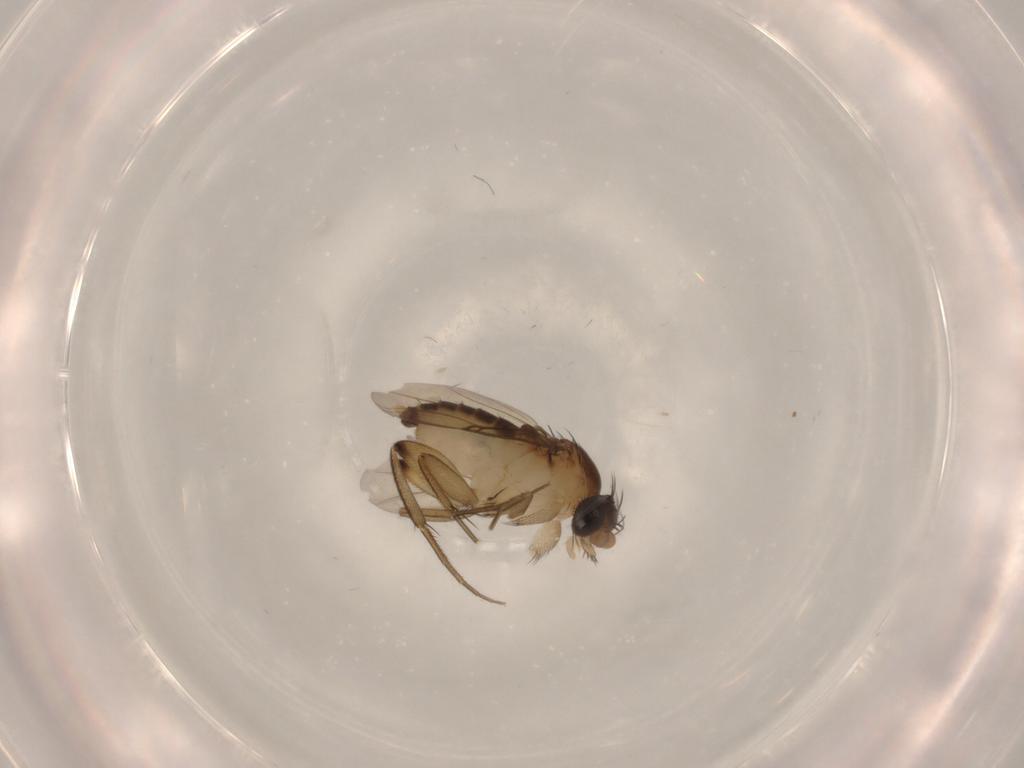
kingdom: Animalia
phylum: Arthropoda
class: Insecta
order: Diptera
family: Phoridae
